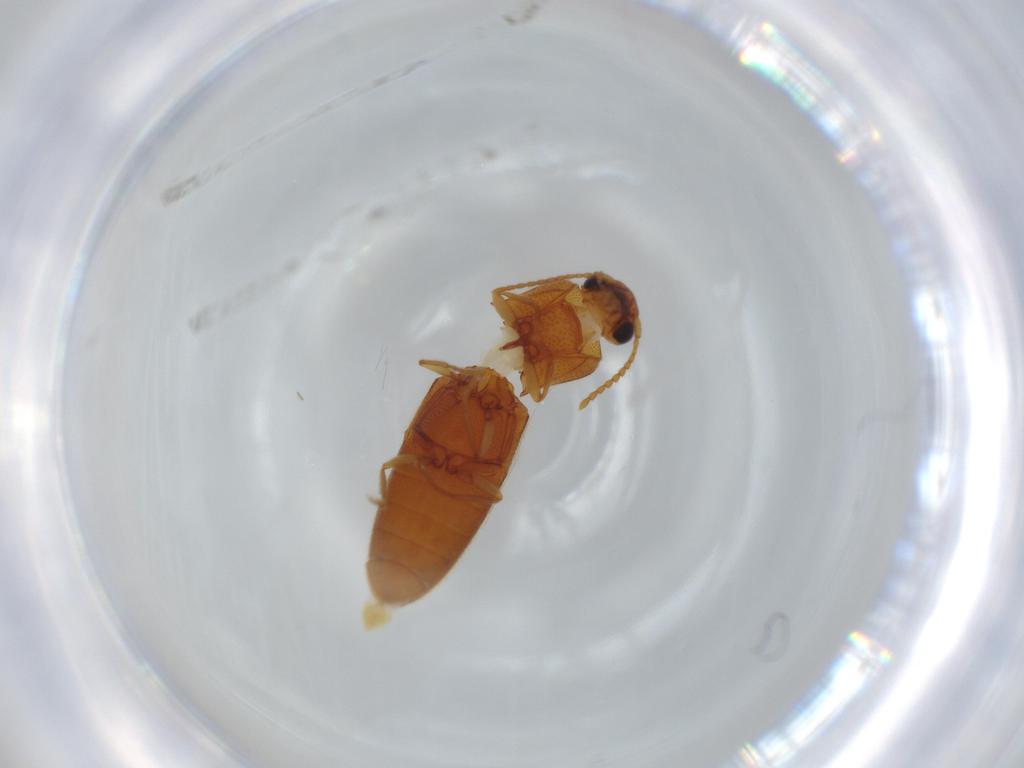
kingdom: Animalia
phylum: Arthropoda
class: Insecta
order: Coleoptera
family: Elateridae
